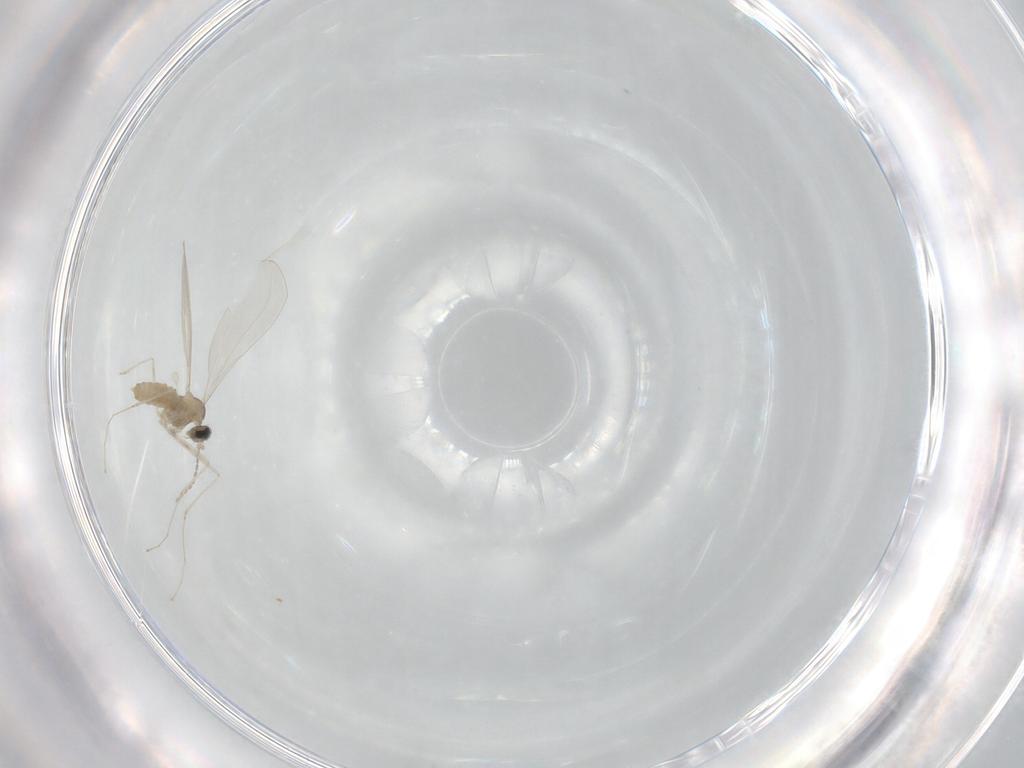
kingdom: Animalia
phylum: Arthropoda
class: Insecta
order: Diptera
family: Cecidomyiidae
